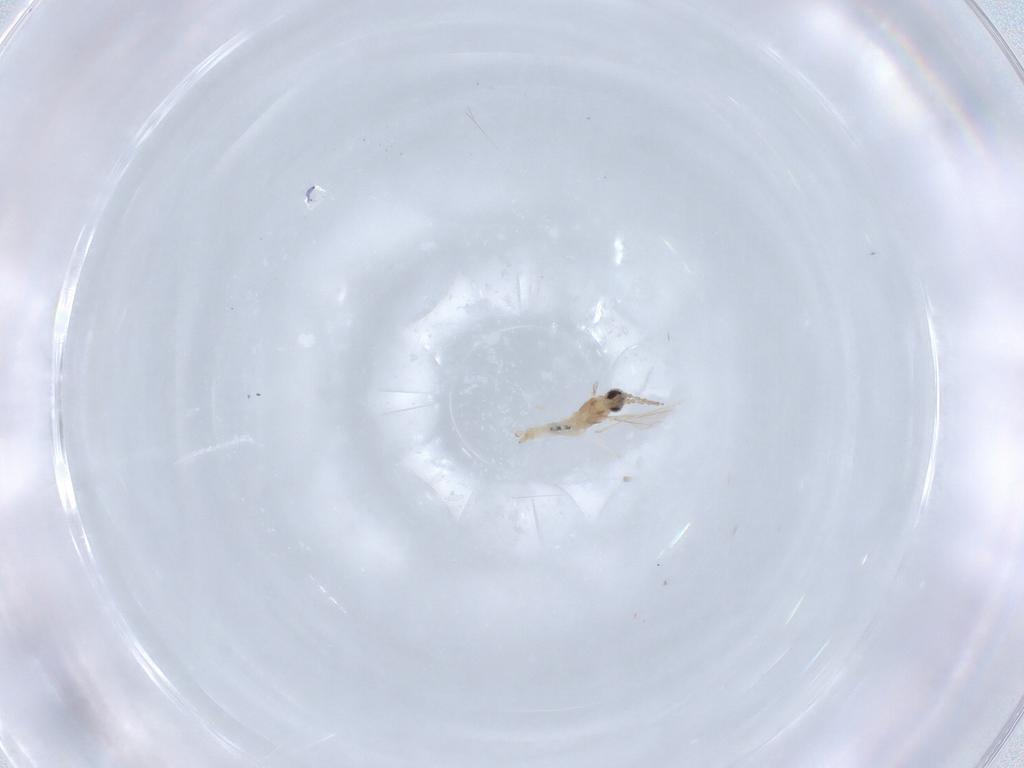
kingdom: Animalia
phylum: Arthropoda
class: Insecta
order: Diptera
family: Cecidomyiidae
